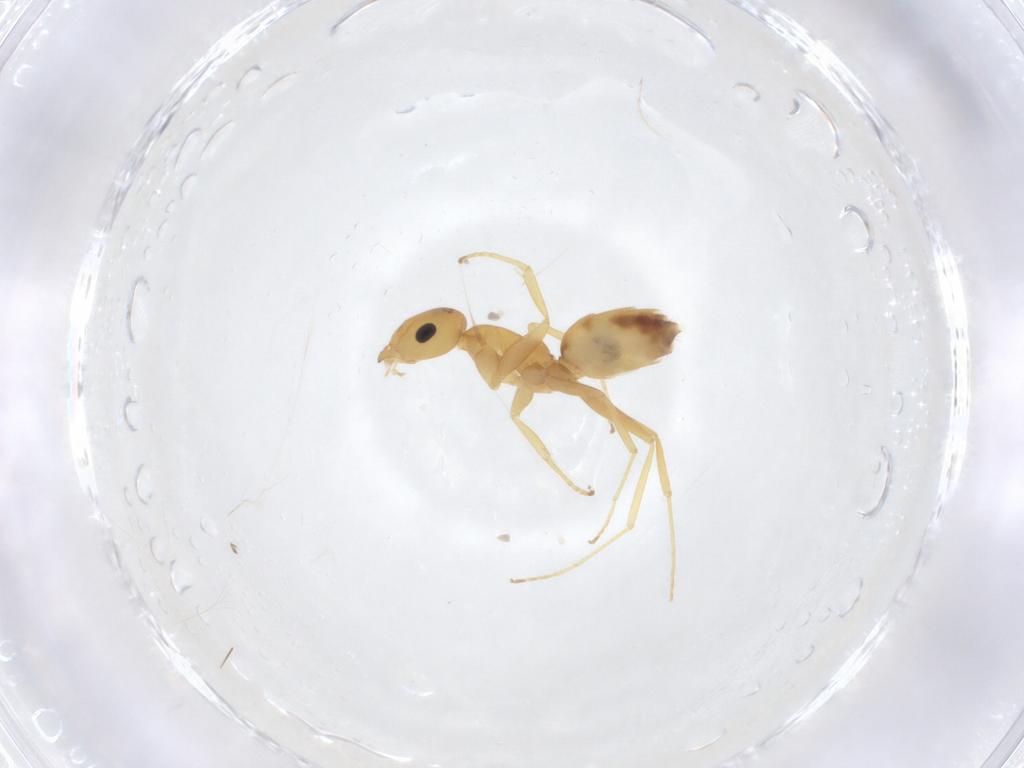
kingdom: Animalia
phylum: Arthropoda
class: Insecta
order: Hymenoptera
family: Formicidae
